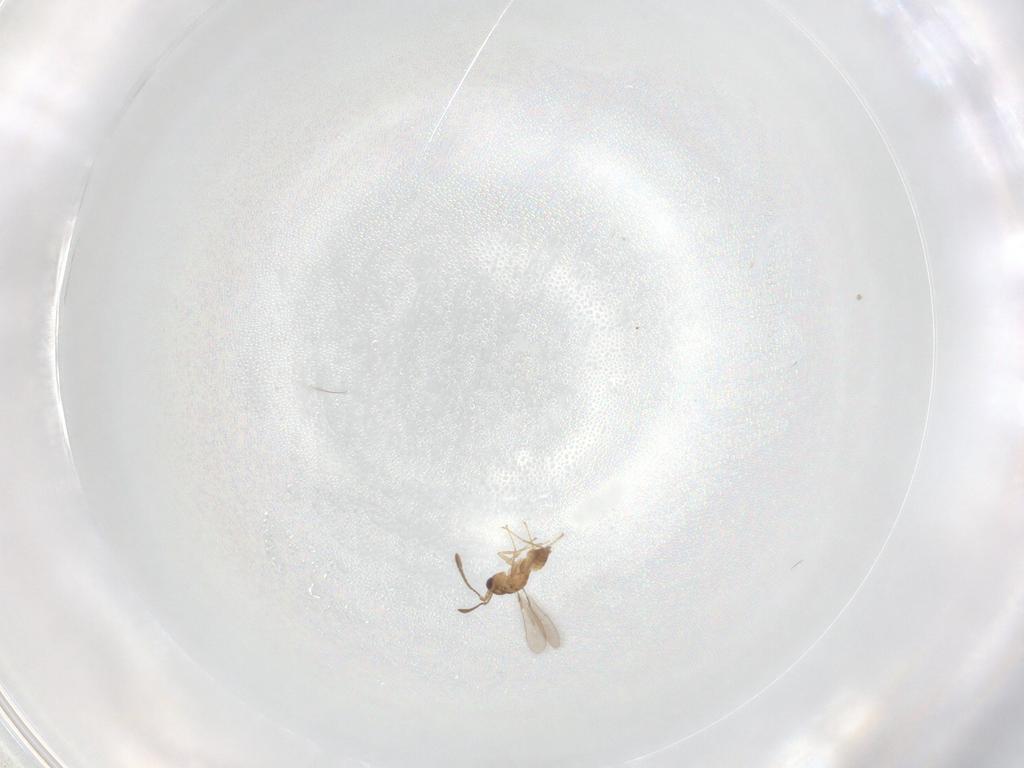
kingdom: Animalia
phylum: Arthropoda
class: Insecta
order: Hymenoptera
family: Mymaridae
